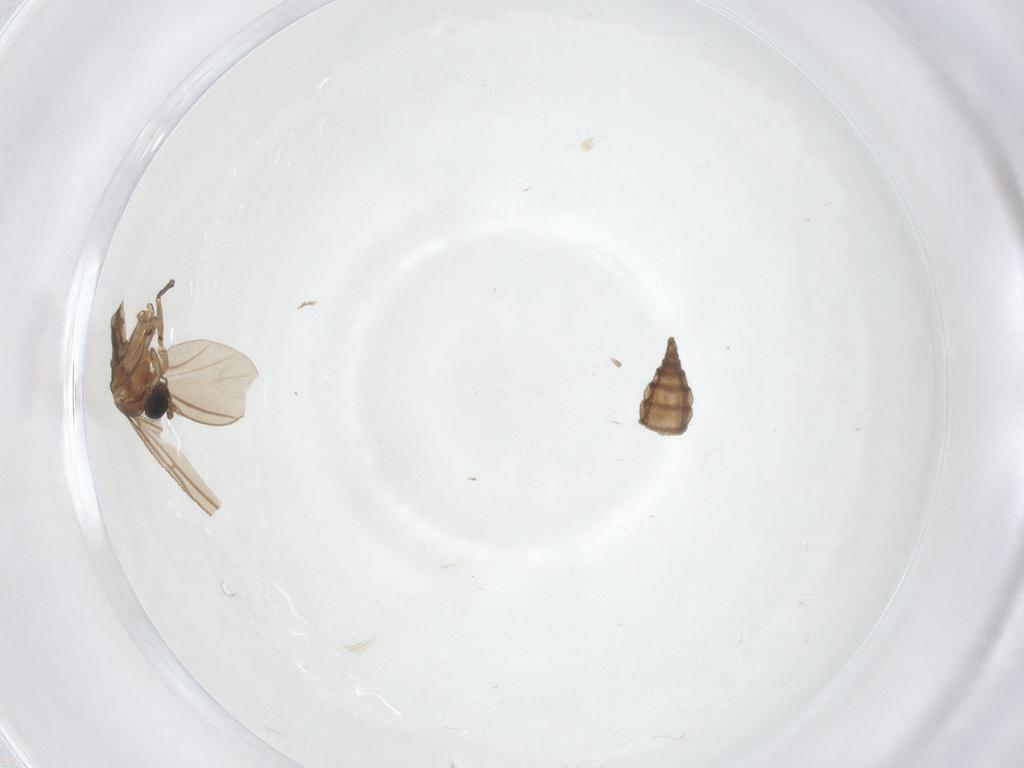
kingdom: Animalia
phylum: Arthropoda
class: Insecta
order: Diptera
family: Sciaridae
